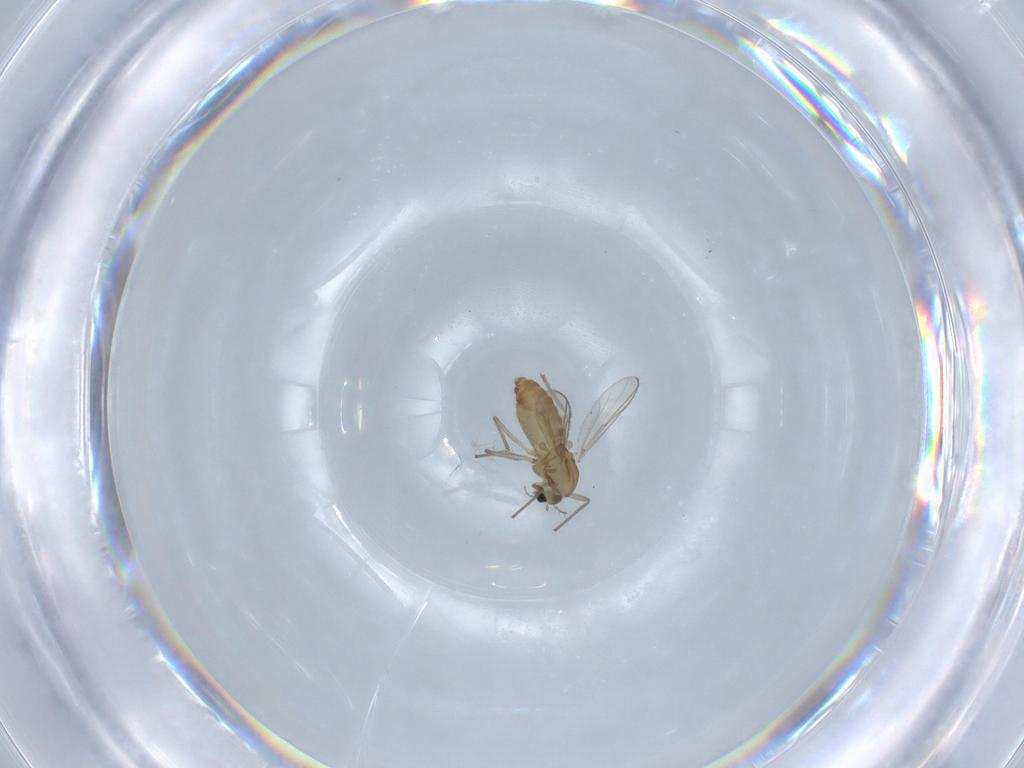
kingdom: Animalia
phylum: Arthropoda
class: Insecta
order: Diptera
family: Chironomidae
